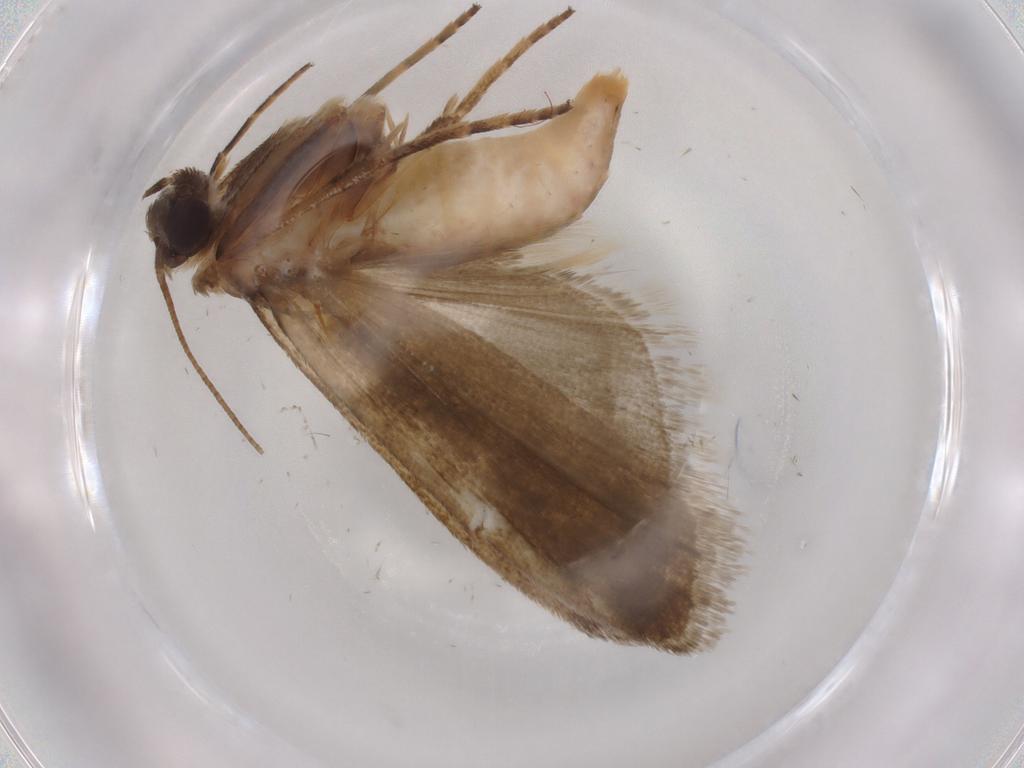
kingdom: Animalia
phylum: Arthropoda
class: Insecta
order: Lepidoptera
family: Noctuidae
